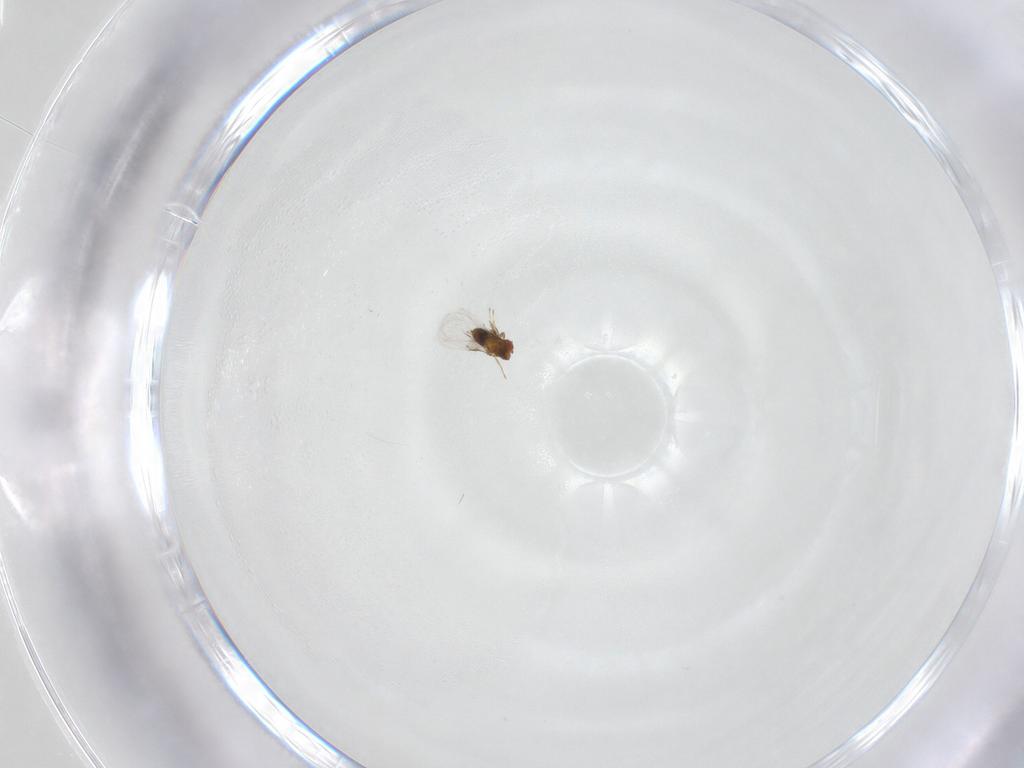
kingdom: Animalia
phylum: Arthropoda
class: Insecta
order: Hymenoptera
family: Trichogrammatidae
